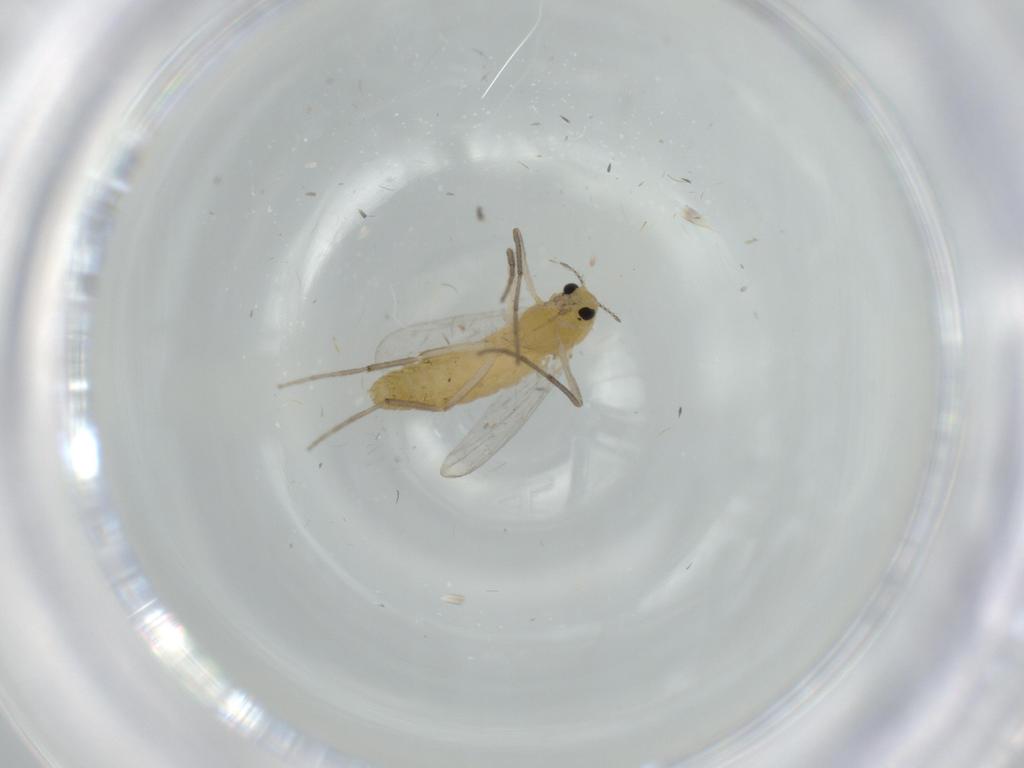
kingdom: Animalia
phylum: Arthropoda
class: Insecta
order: Diptera
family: Chironomidae
